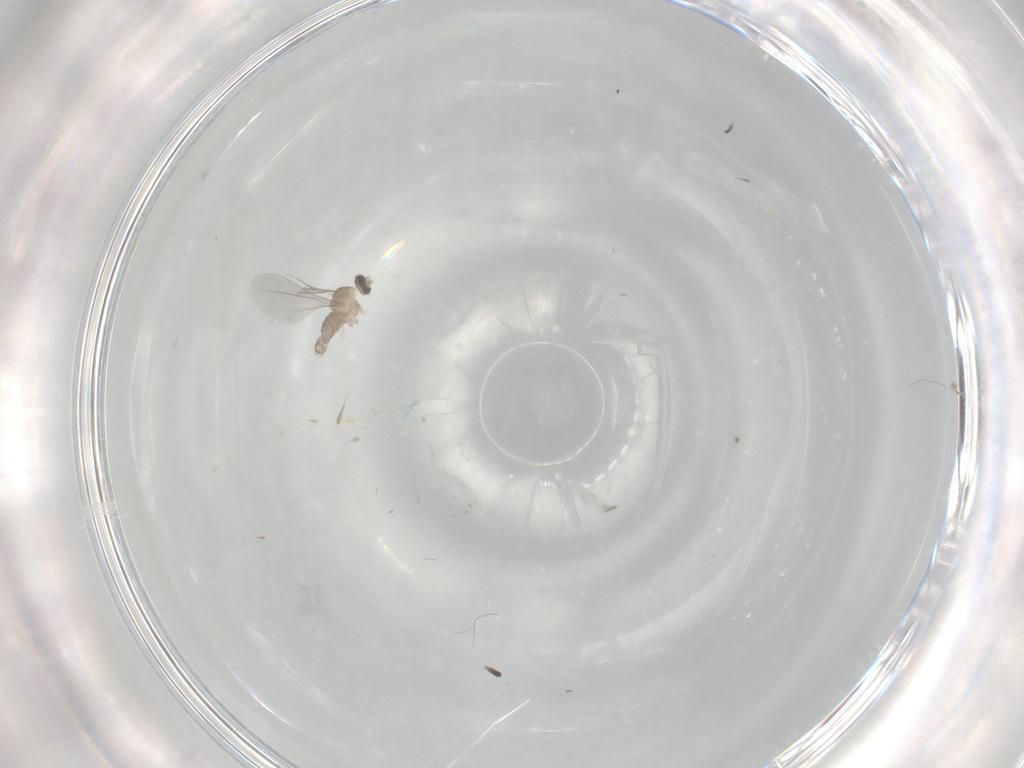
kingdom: Animalia
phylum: Arthropoda
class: Insecta
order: Diptera
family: Cecidomyiidae
